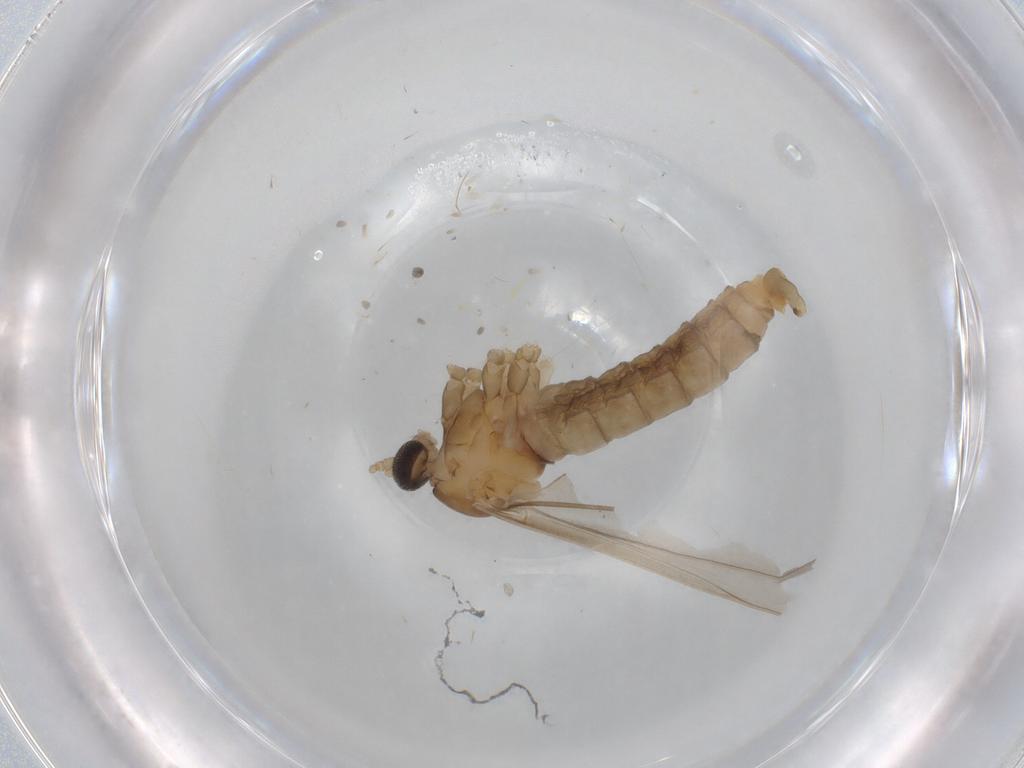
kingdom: Animalia
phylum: Arthropoda
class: Insecta
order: Diptera
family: Cecidomyiidae
